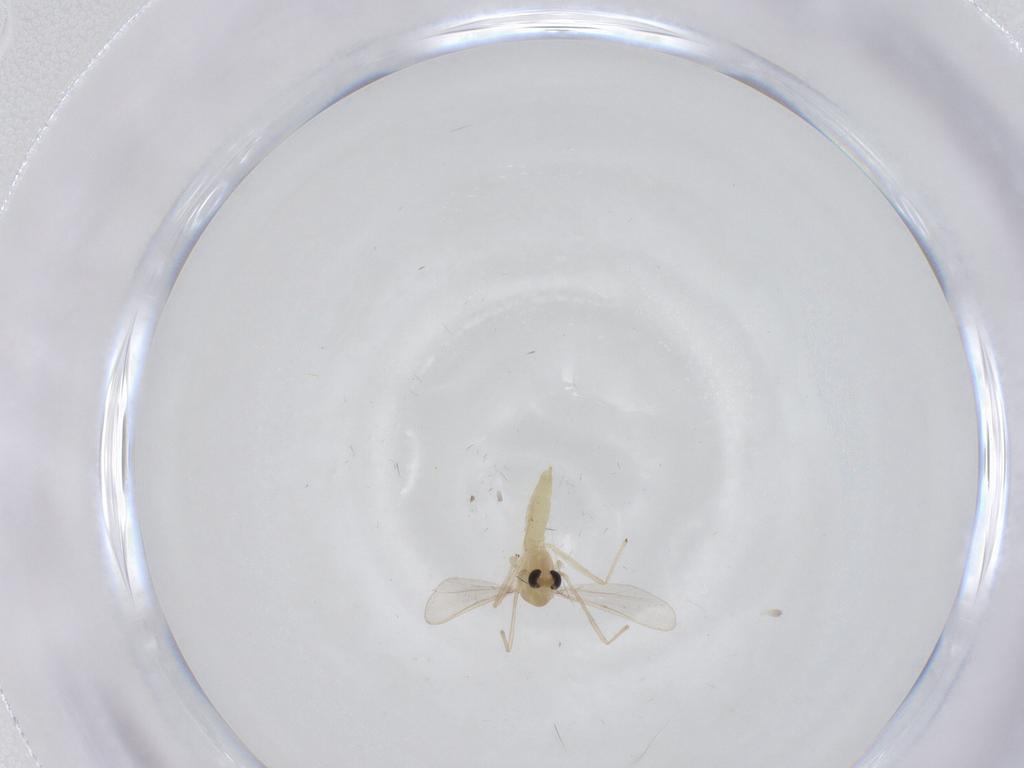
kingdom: Animalia
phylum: Arthropoda
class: Insecta
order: Diptera
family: Chironomidae
